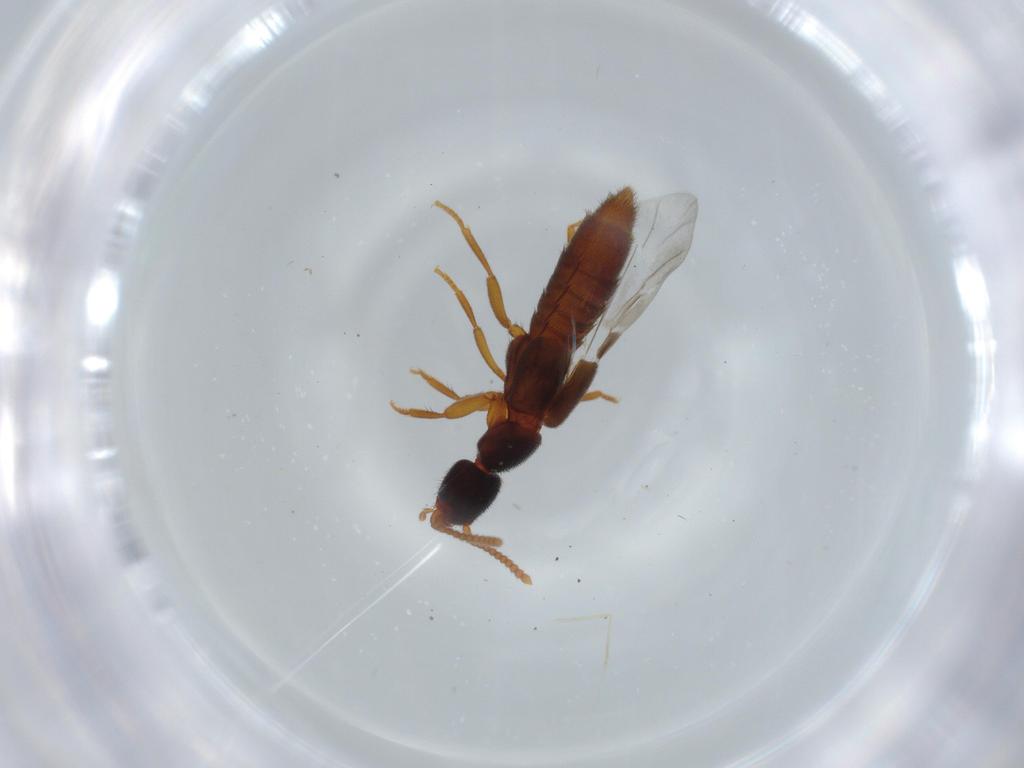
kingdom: Animalia
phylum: Arthropoda
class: Insecta
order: Coleoptera
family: Staphylinidae
